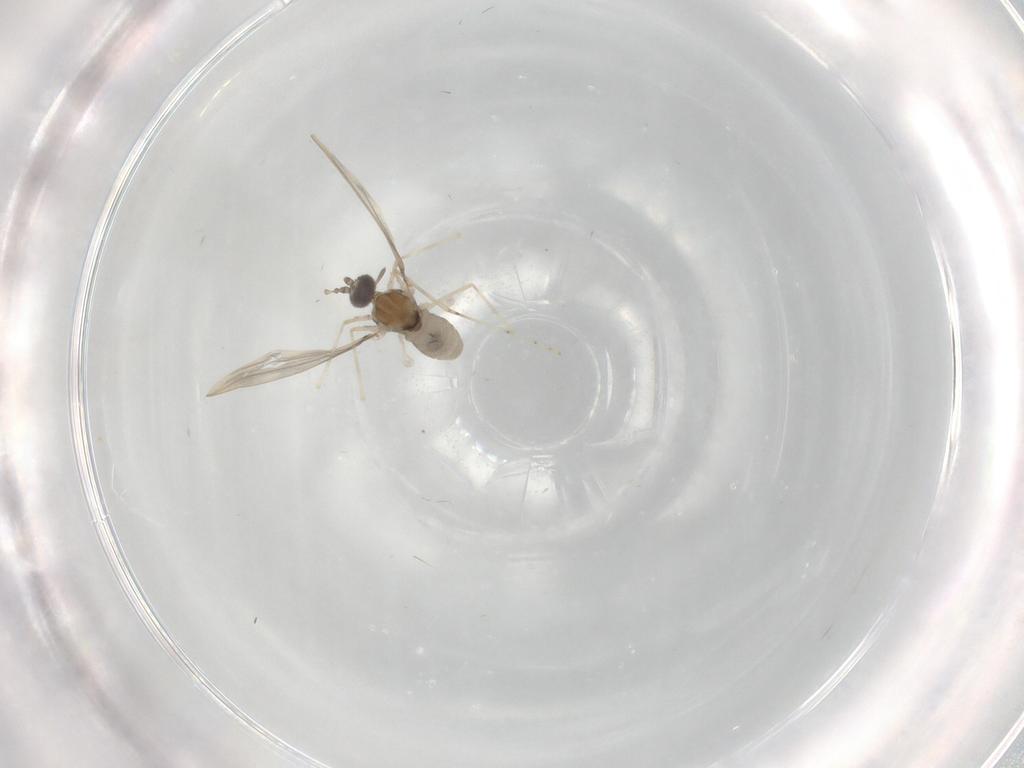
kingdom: Animalia
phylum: Arthropoda
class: Insecta
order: Diptera
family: Cecidomyiidae
